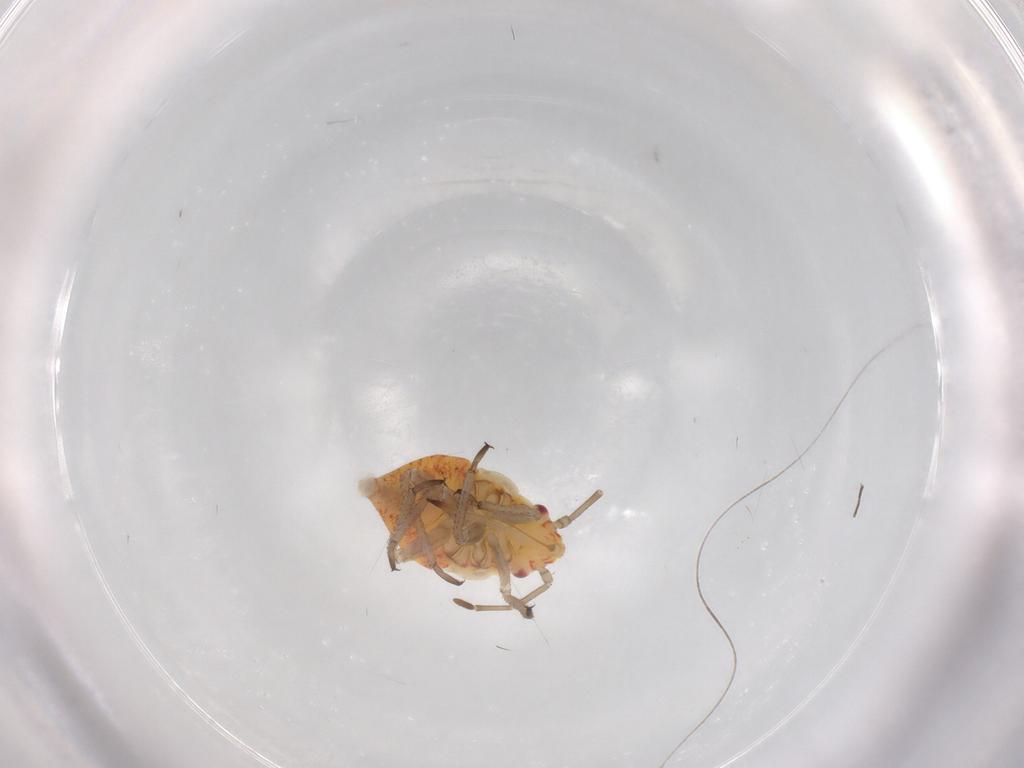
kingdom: Animalia
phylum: Arthropoda
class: Insecta
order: Hemiptera
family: Miridae
